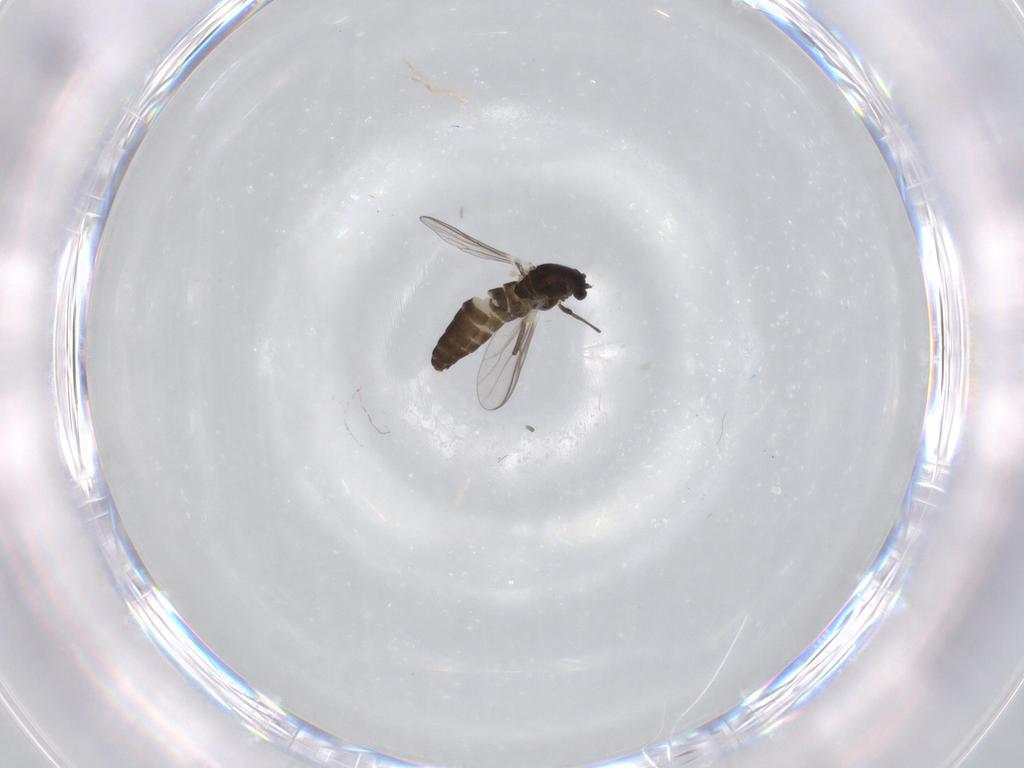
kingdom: Animalia
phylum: Arthropoda
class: Insecta
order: Diptera
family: Chironomidae
